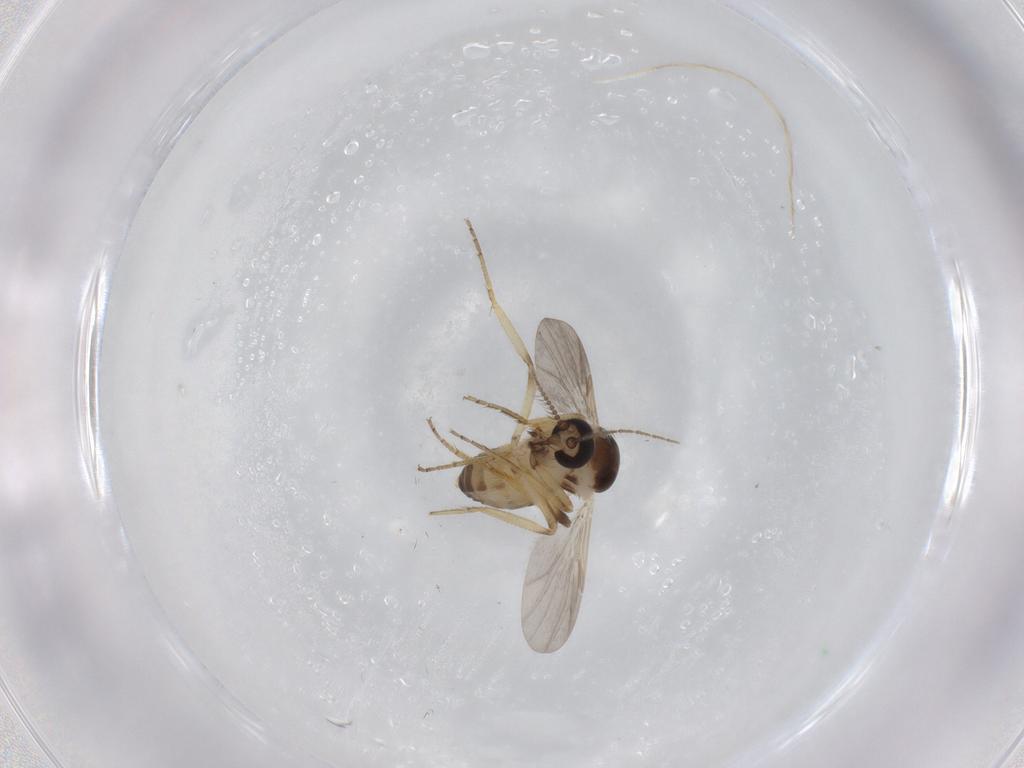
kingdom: Animalia
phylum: Arthropoda
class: Insecta
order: Diptera
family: Ceratopogonidae
